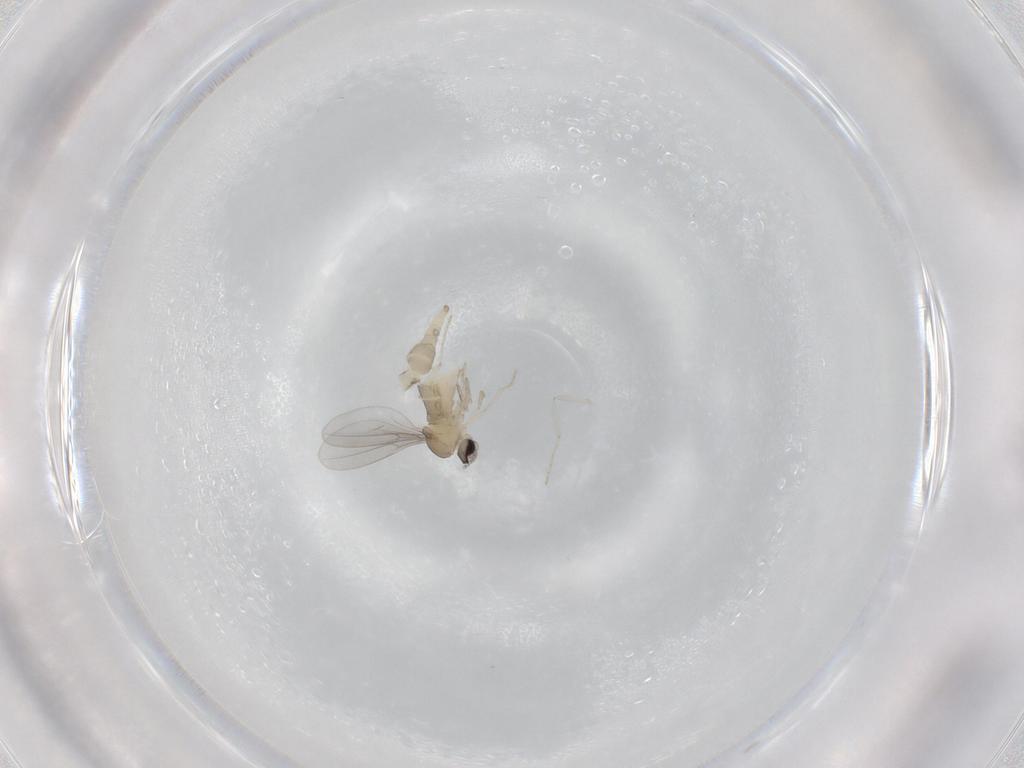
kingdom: Animalia
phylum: Arthropoda
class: Insecta
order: Diptera
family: Cecidomyiidae
